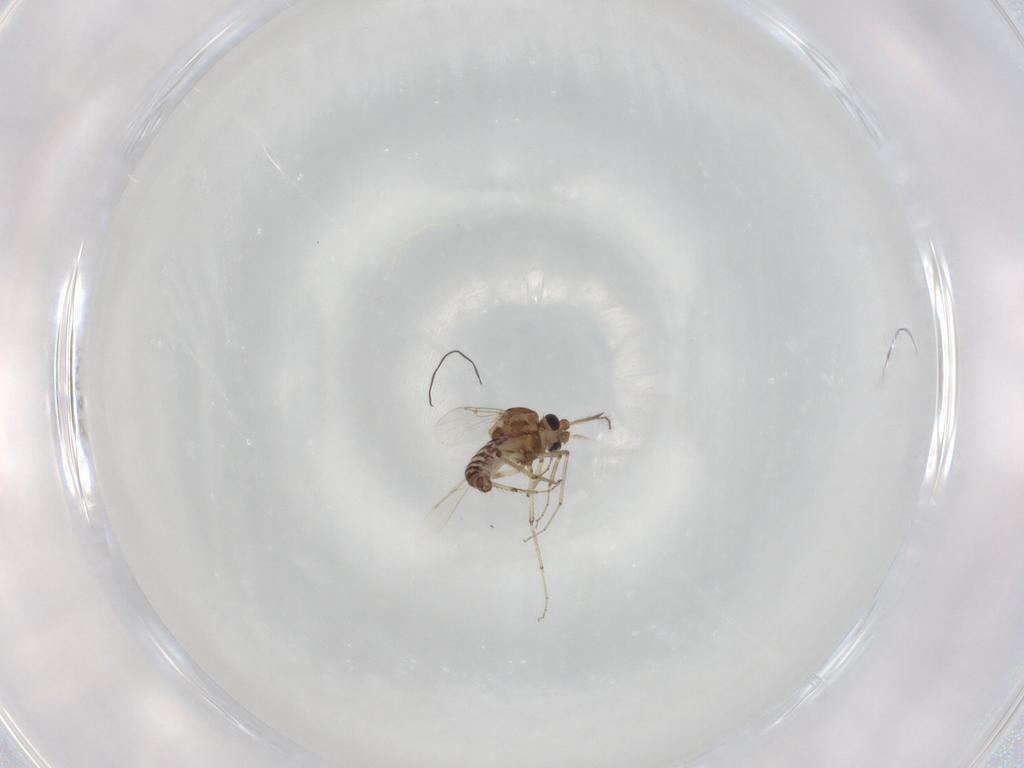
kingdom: Animalia
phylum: Arthropoda
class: Insecta
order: Diptera
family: Ceratopogonidae
